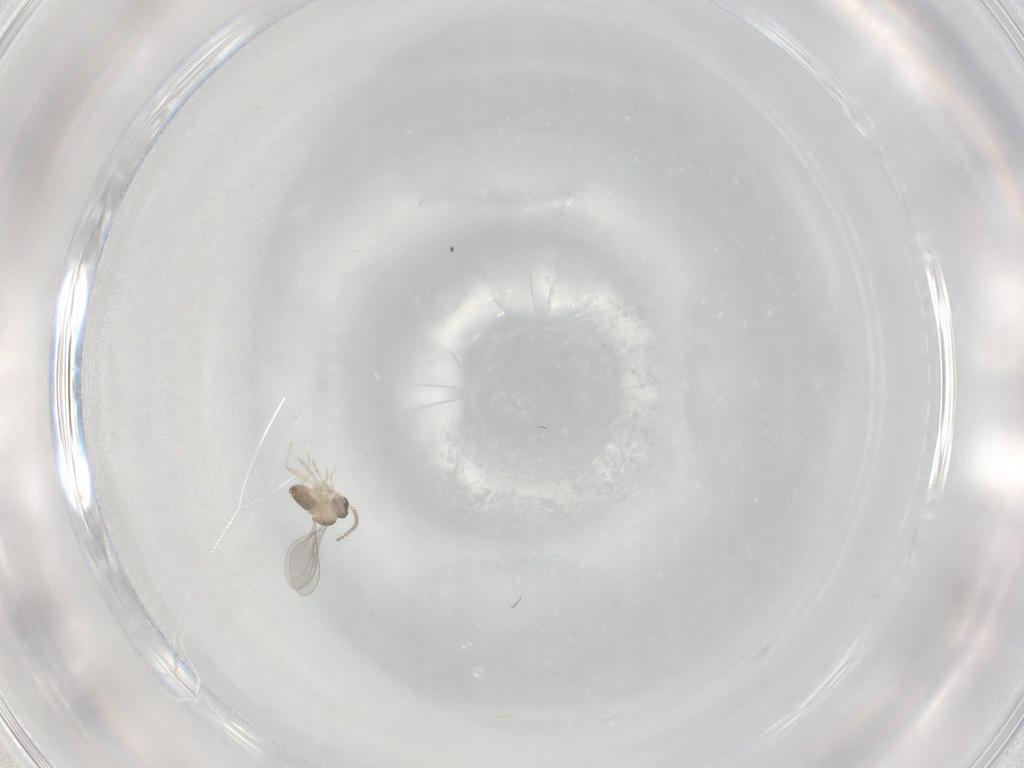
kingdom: Animalia
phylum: Arthropoda
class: Insecta
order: Diptera
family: Cecidomyiidae
